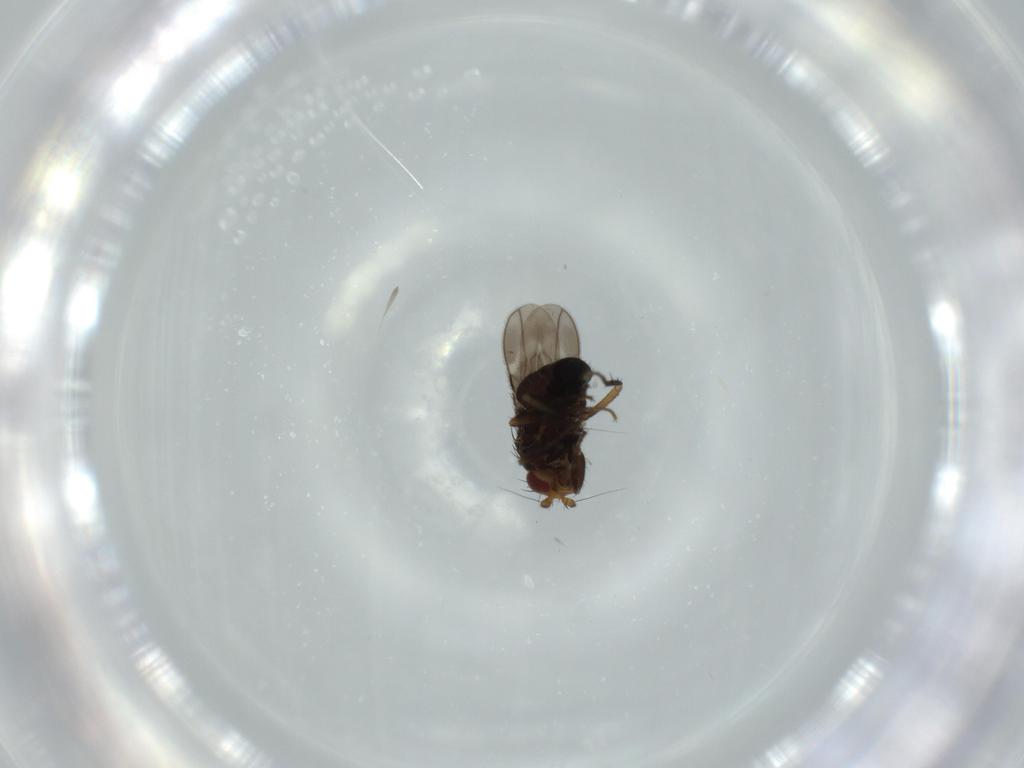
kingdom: Animalia
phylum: Arthropoda
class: Insecta
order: Diptera
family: Sphaeroceridae
